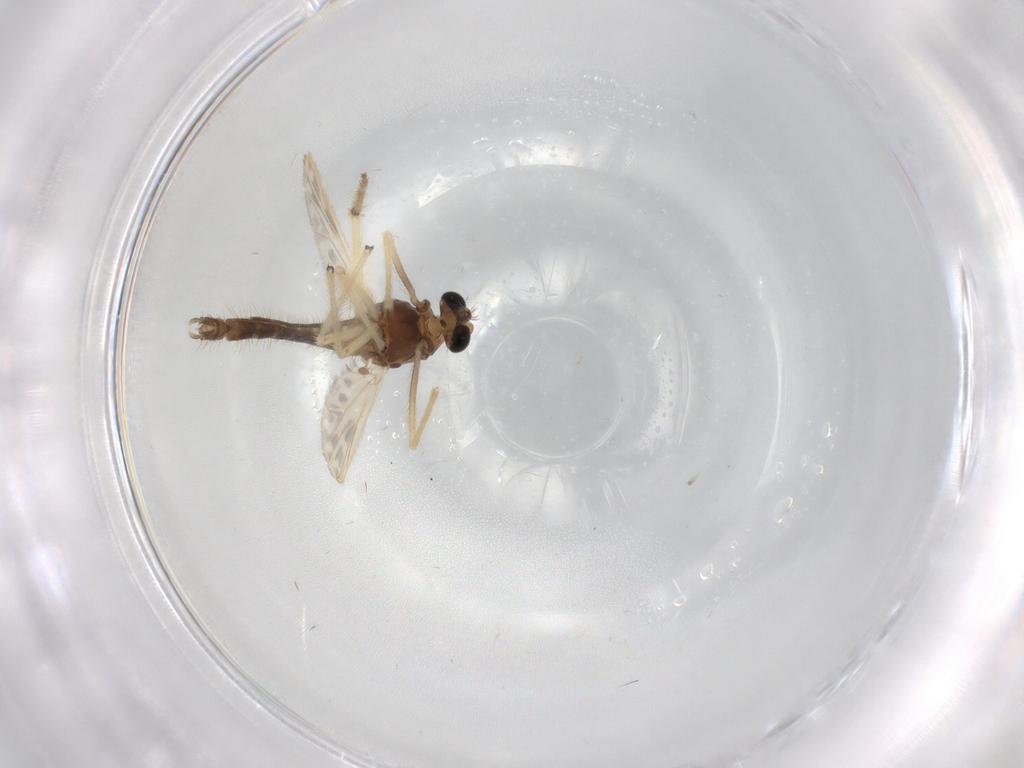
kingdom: Animalia
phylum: Arthropoda
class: Insecta
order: Diptera
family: Chironomidae
